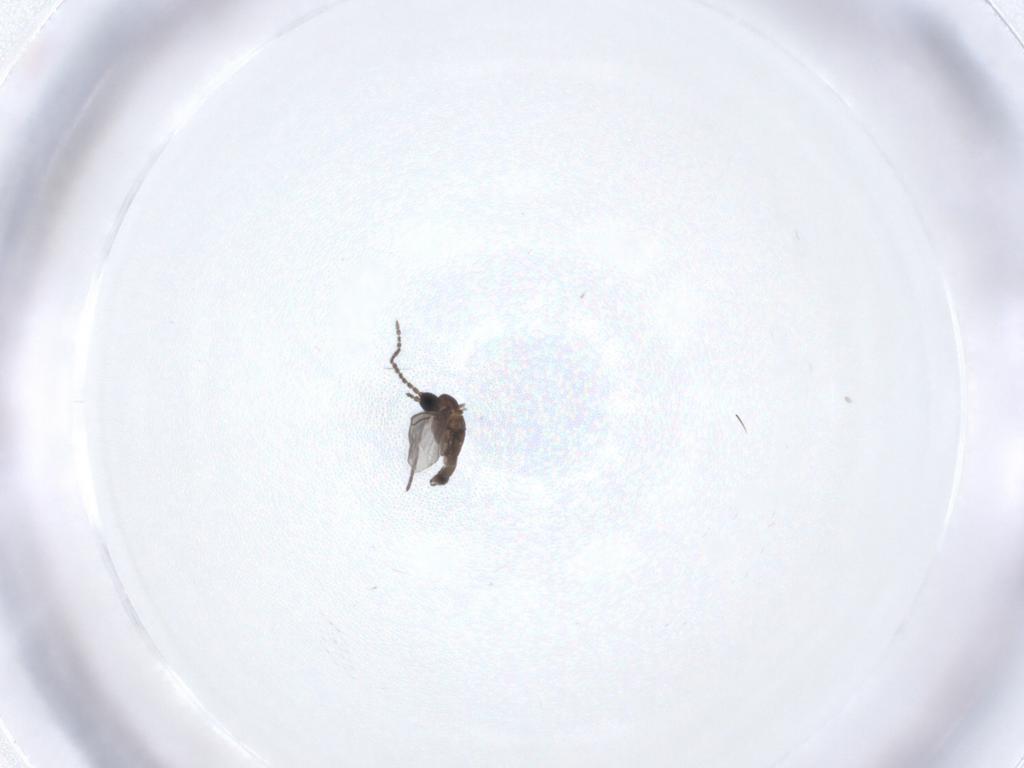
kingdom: Animalia
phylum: Arthropoda
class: Insecta
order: Diptera
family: Sciaridae
